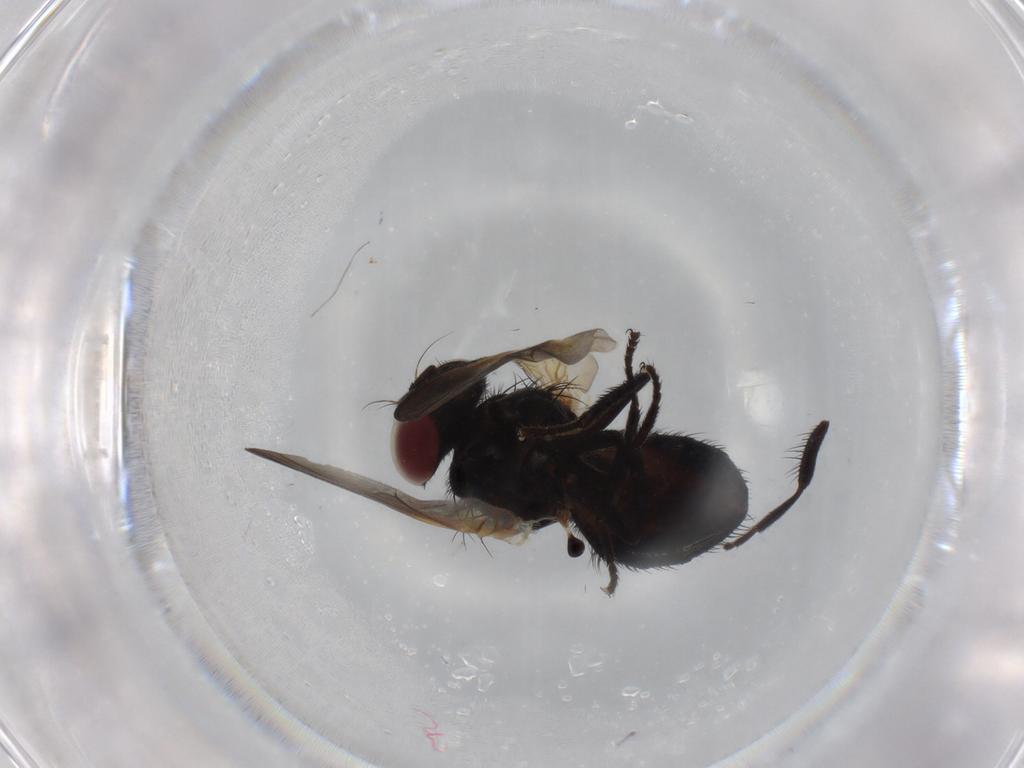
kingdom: Animalia
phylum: Arthropoda
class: Insecta
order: Diptera
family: Lonchaeidae
